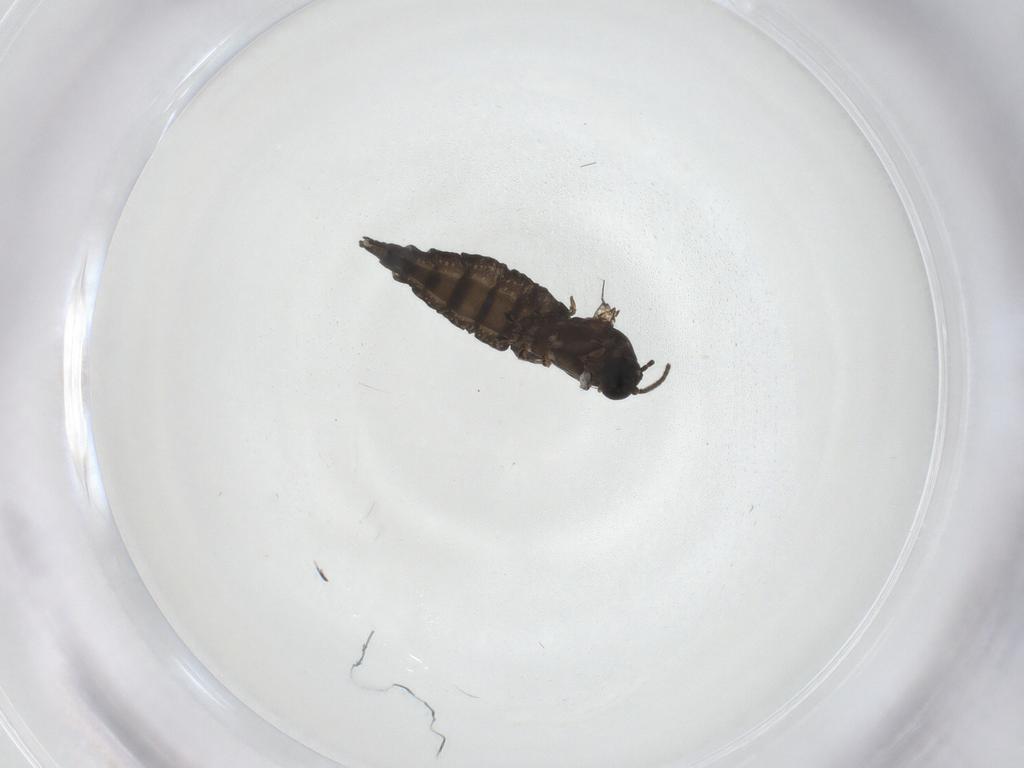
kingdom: Animalia
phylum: Arthropoda
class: Insecta
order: Diptera
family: Sciaridae
